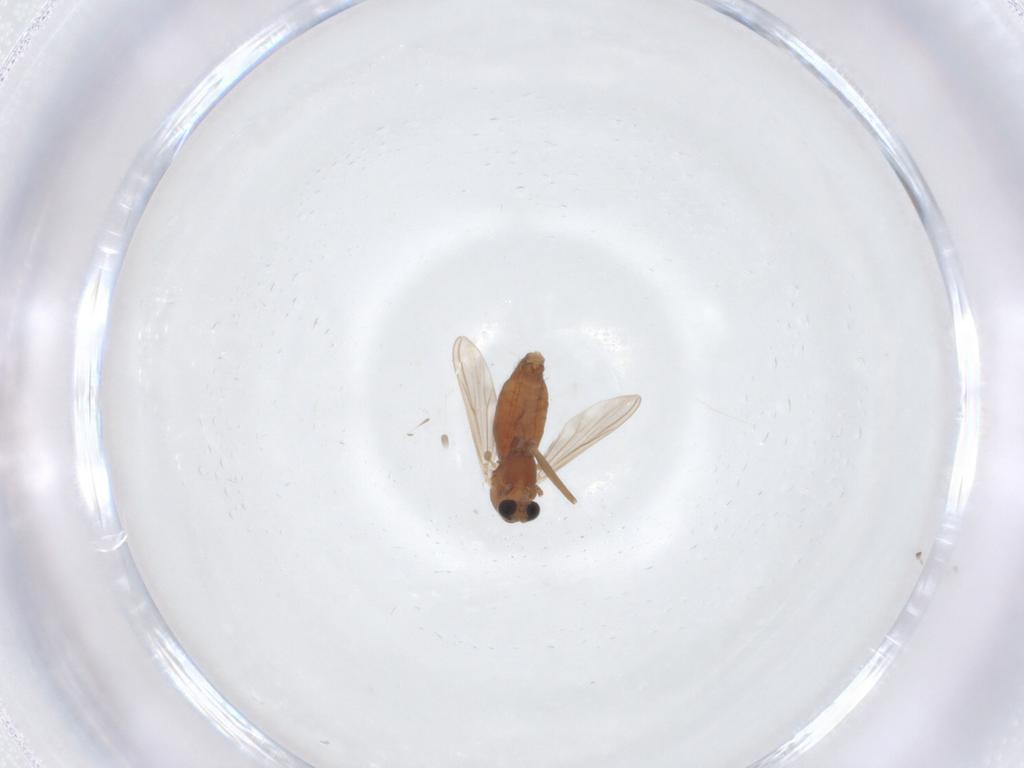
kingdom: Animalia
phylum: Arthropoda
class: Insecta
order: Diptera
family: Chironomidae
